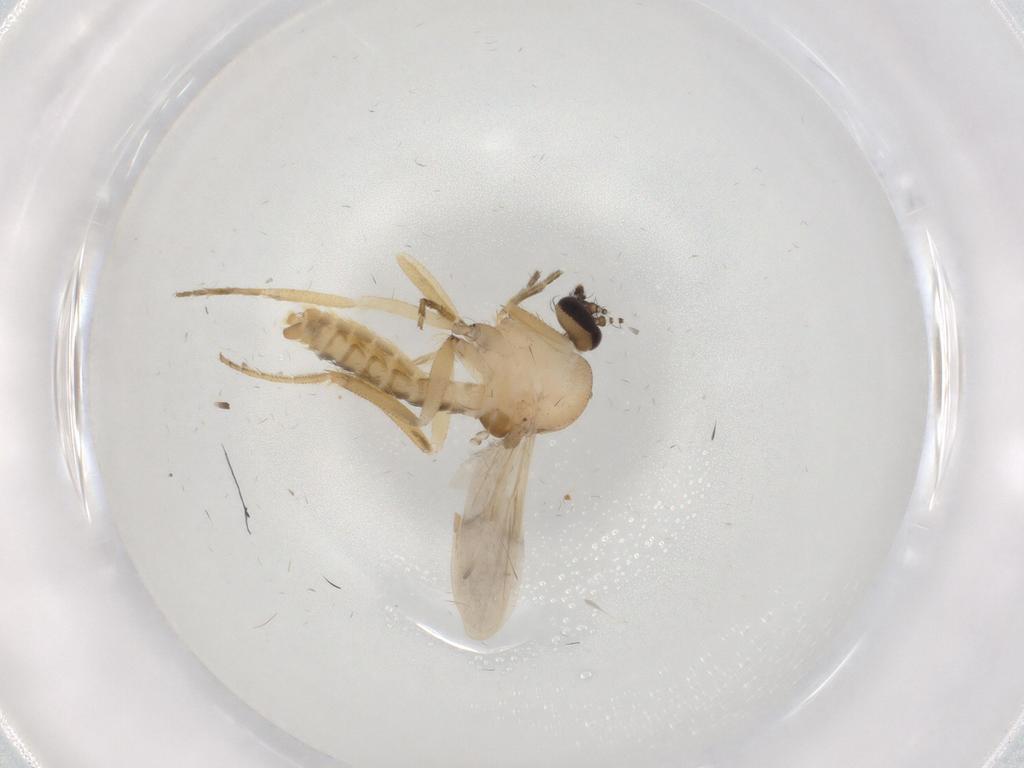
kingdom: Animalia
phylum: Arthropoda
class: Insecta
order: Diptera
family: Ceratopogonidae
